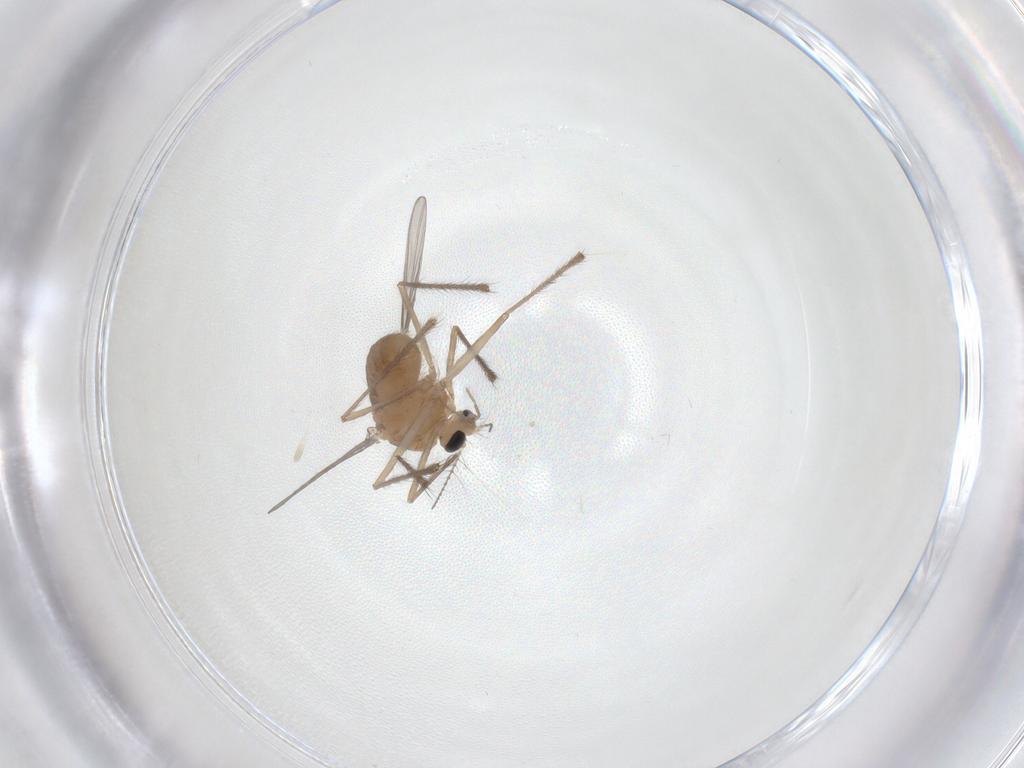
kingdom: Animalia
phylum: Arthropoda
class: Insecta
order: Diptera
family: Chironomidae
